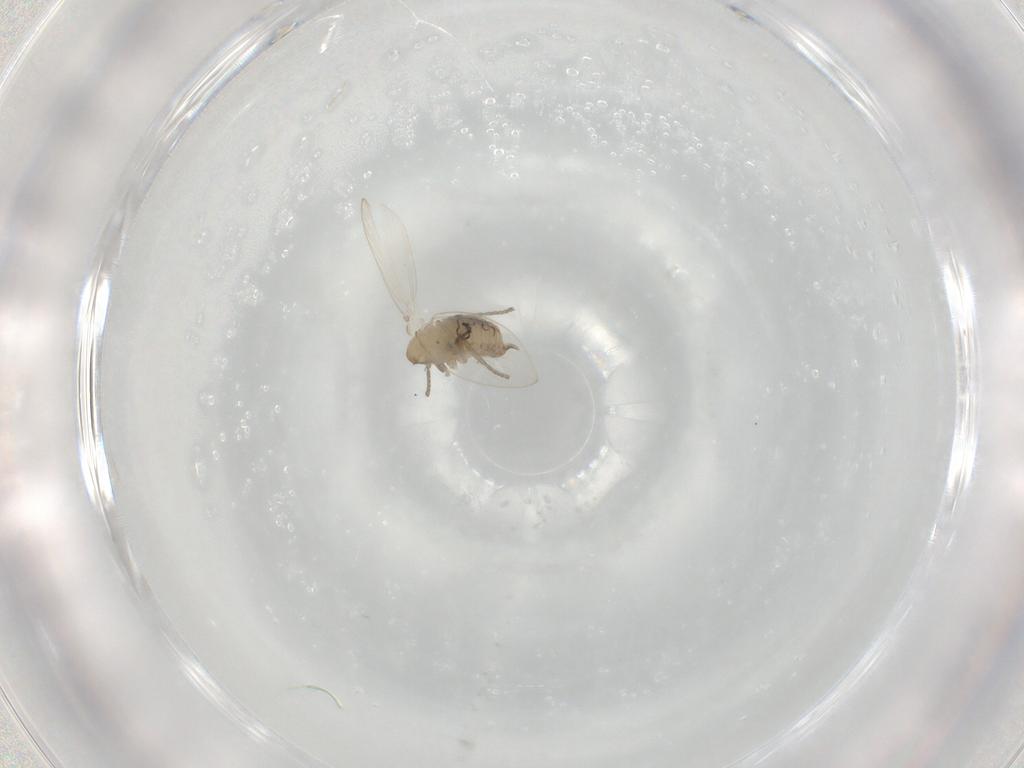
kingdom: Animalia
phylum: Arthropoda
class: Insecta
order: Diptera
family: Psychodidae
